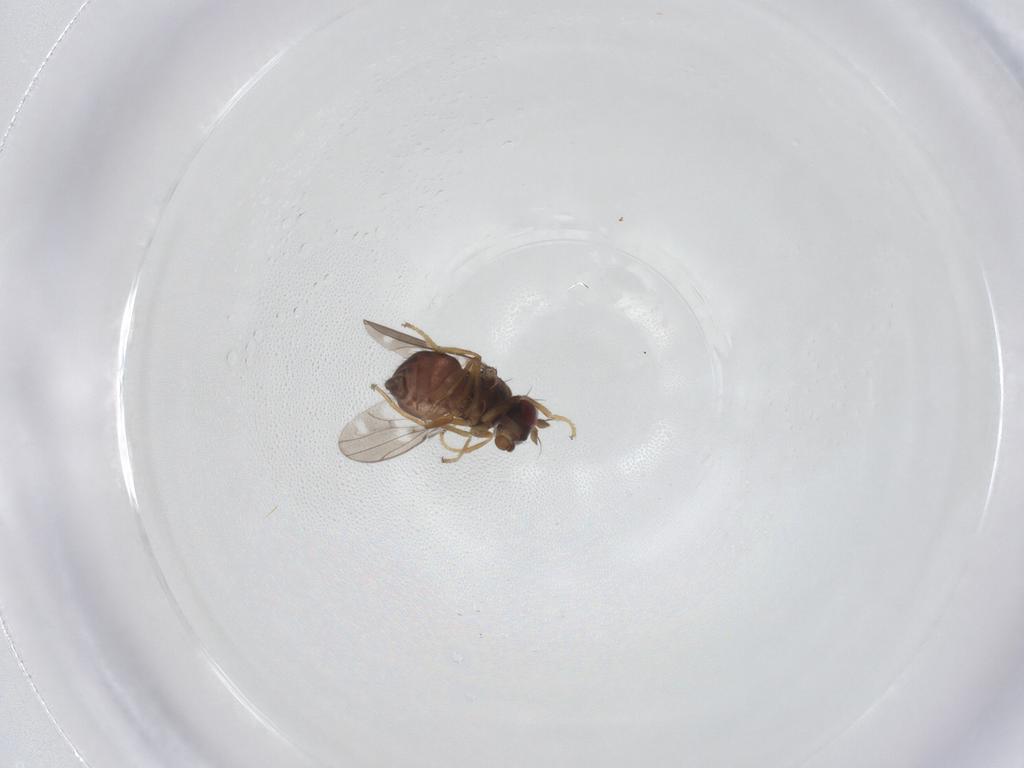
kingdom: Animalia
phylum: Arthropoda
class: Insecta
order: Diptera
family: Ephydridae
